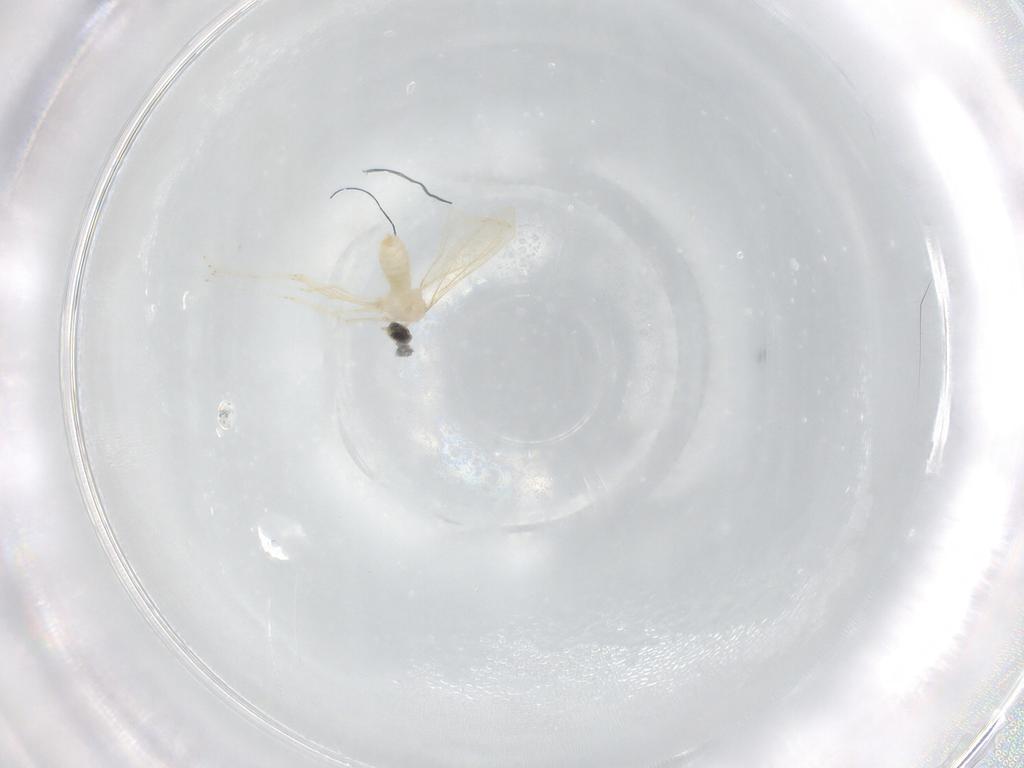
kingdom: Animalia
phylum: Arthropoda
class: Insecta
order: Diptera
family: Cecidomyiidae
